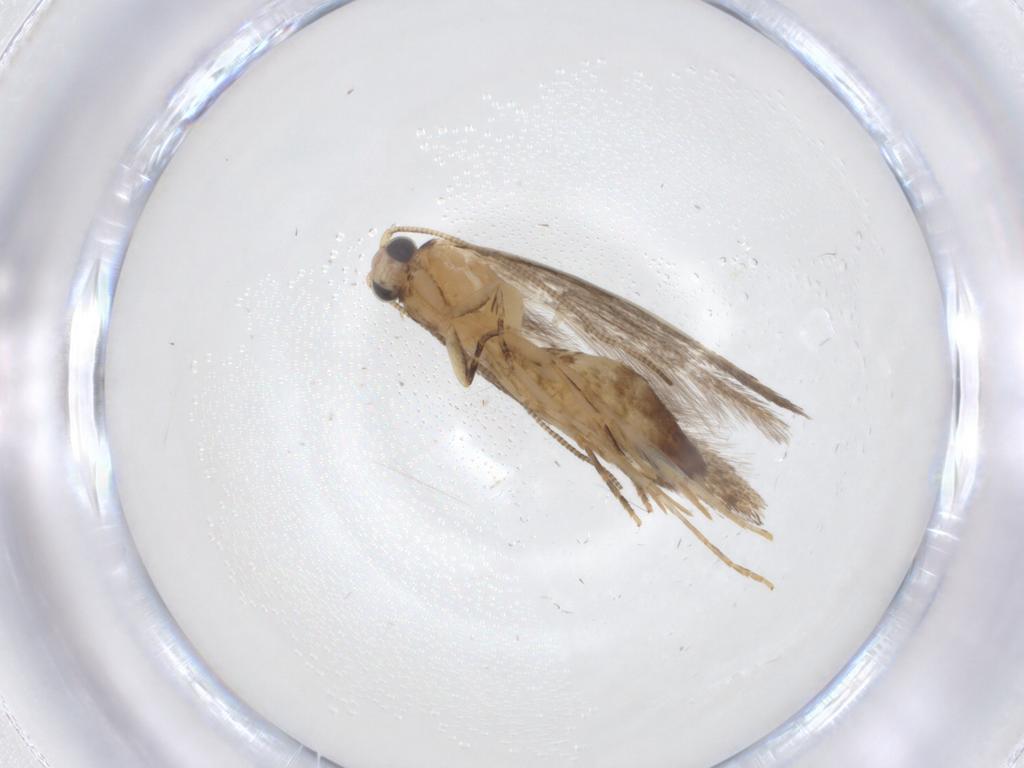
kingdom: Animalia
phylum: Arthropoda
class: Insecta
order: Lepidoptera
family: Tineidae
